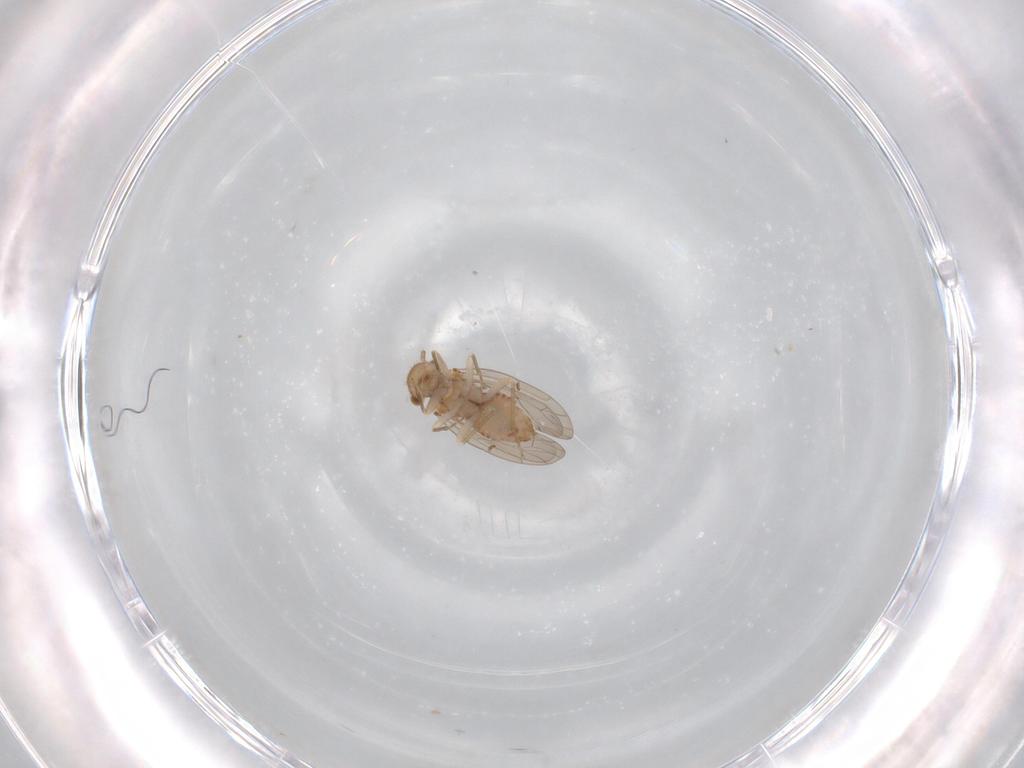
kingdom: Animalia
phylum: Arthropoda
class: Insecta
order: Psocodea
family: Ectopsocidae
